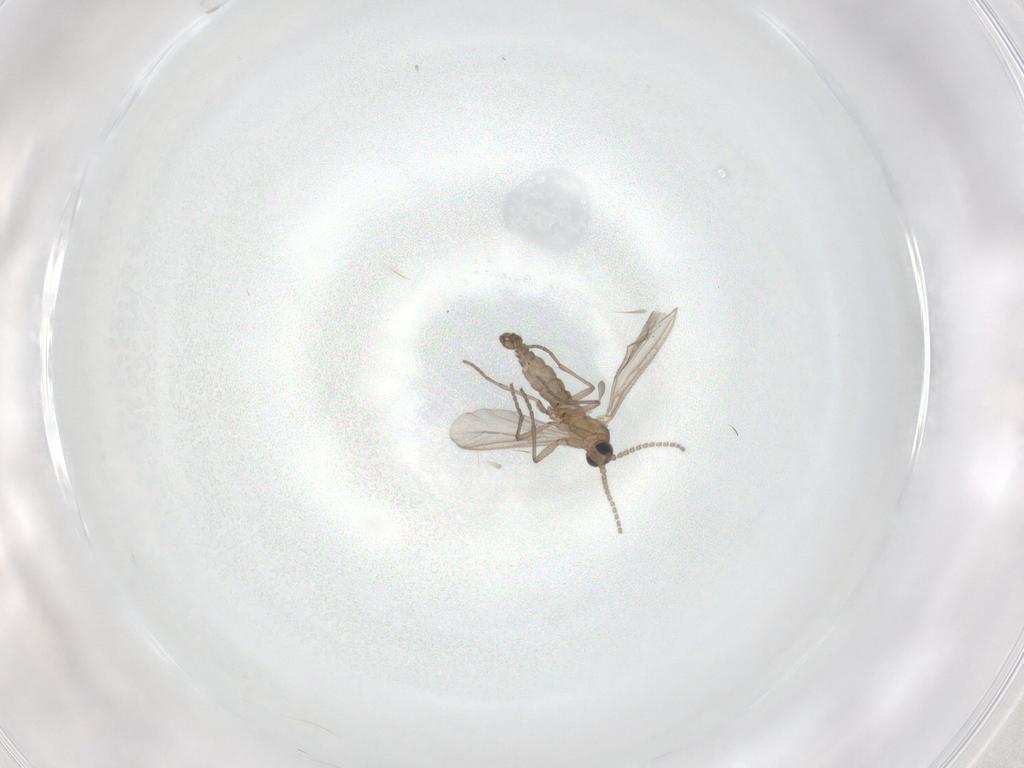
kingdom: Animalia
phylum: Arthropoda
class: Insecta
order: Diptera
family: Sciaridae
